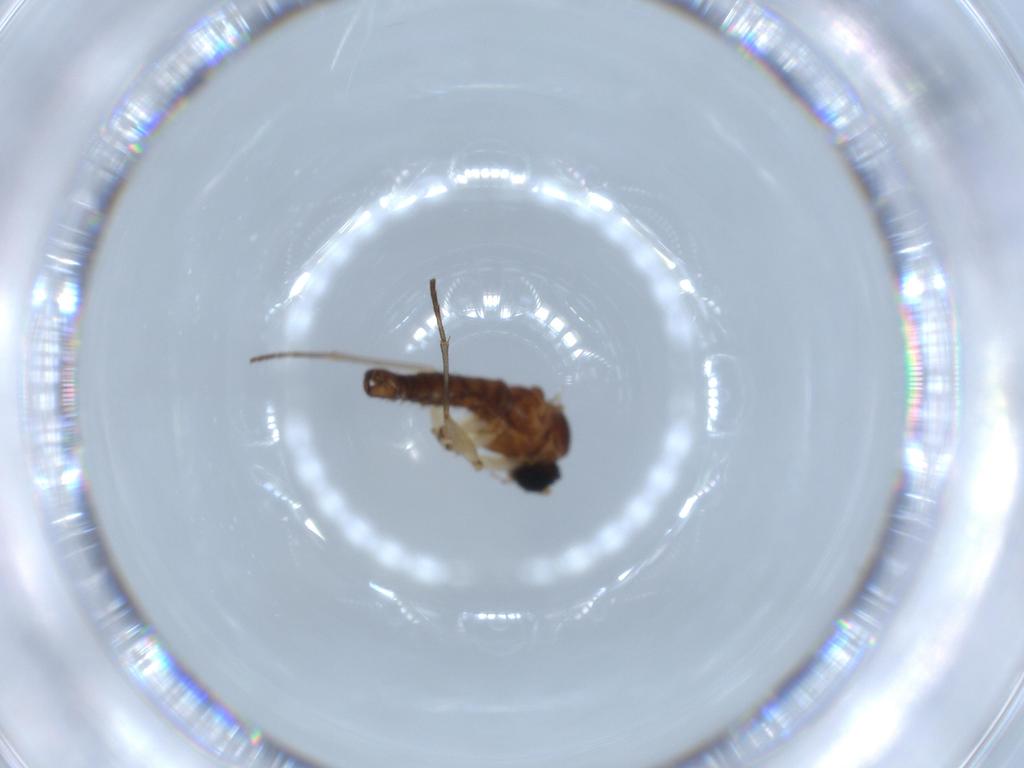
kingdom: Animalia
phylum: Arthropoda
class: Insecta
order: Diptera
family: Sciaridae
